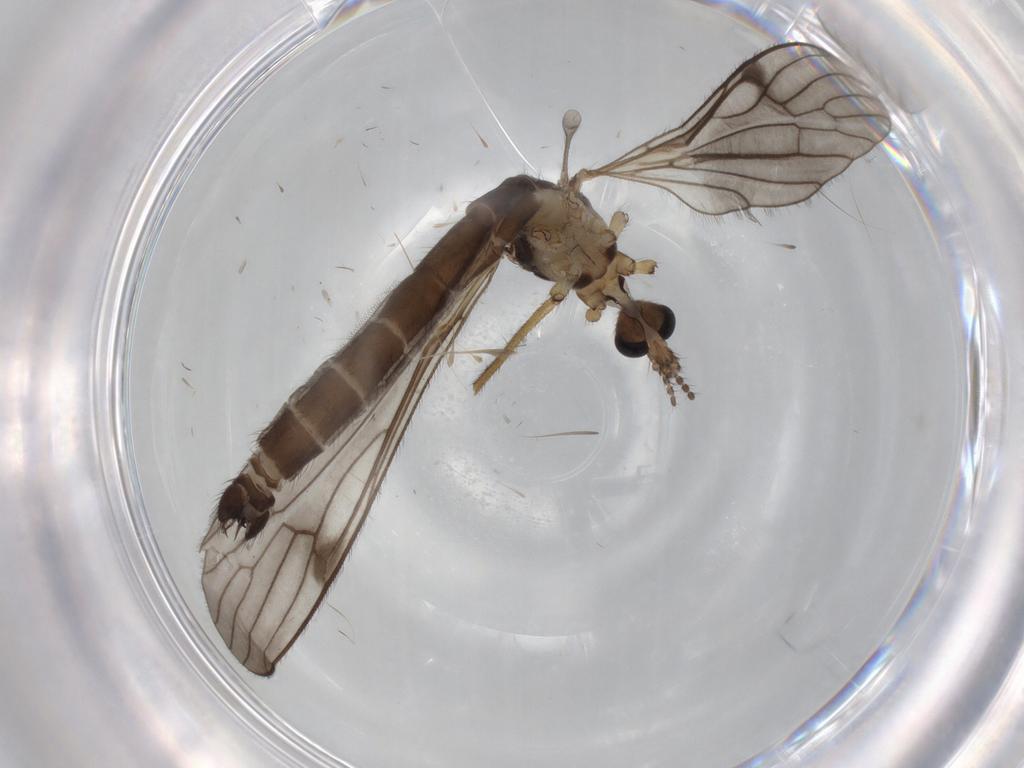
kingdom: Animalia
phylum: Arthropoda
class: Insecta
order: Diptera
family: Limoniidae
